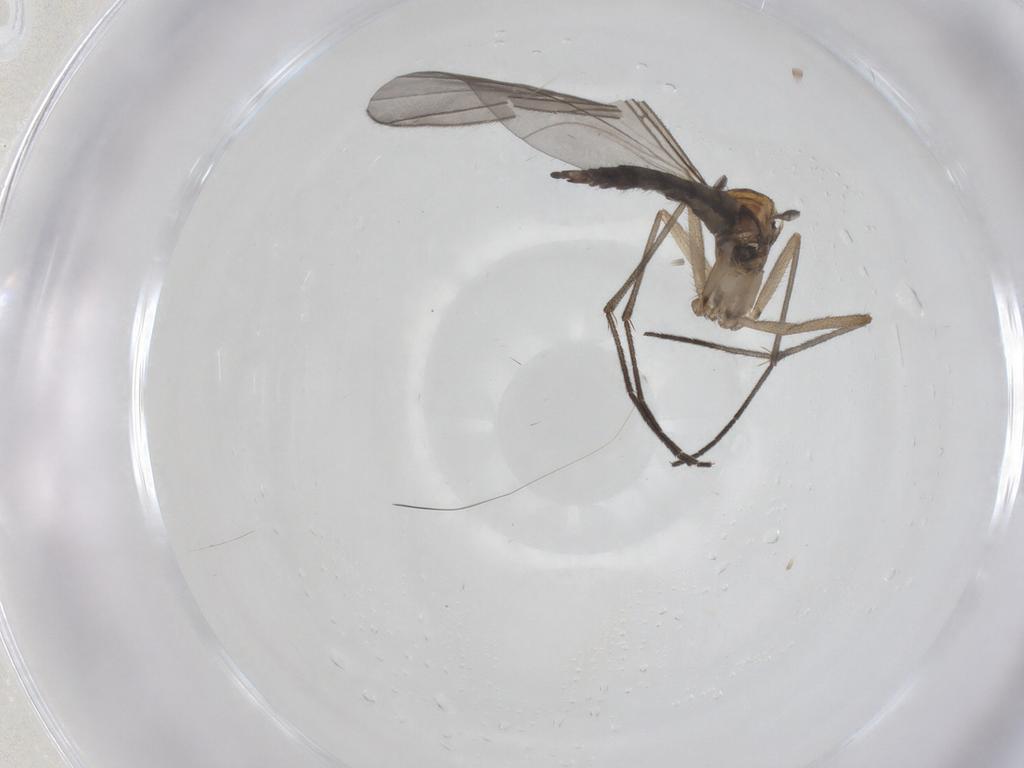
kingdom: Animalia
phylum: Arthropoda
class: Insecta
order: Diptera
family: Sciaridae
